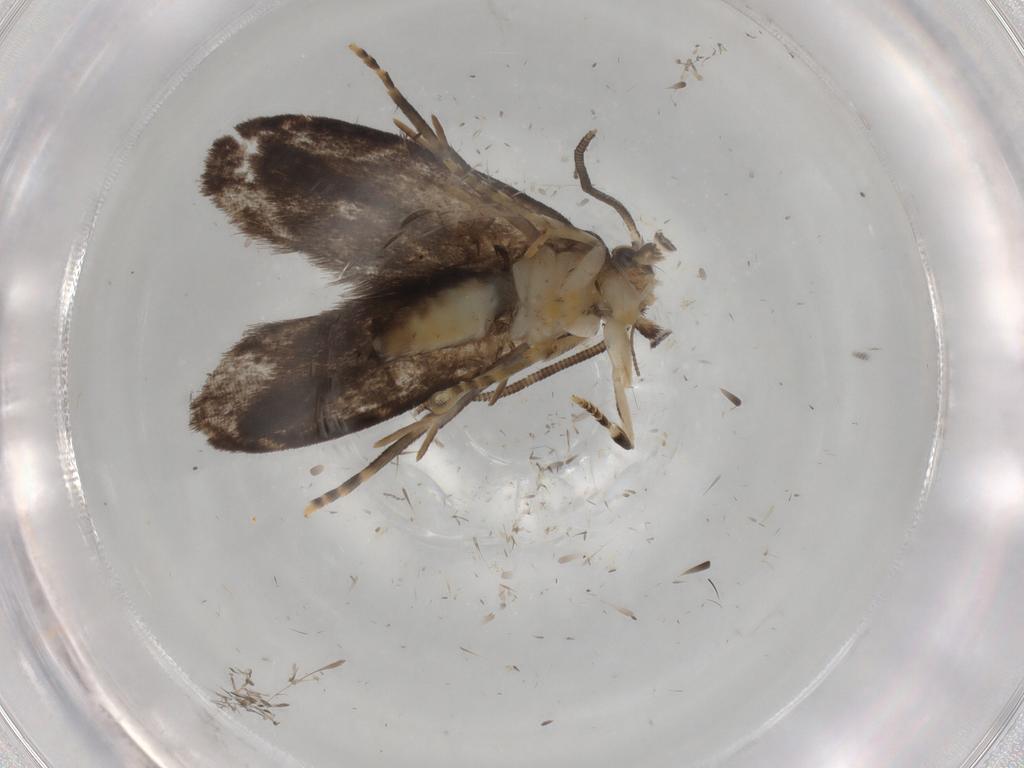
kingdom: Animalia
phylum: Arthropoda
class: Insecta
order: Lepidoptera
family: Dryadaulidae
